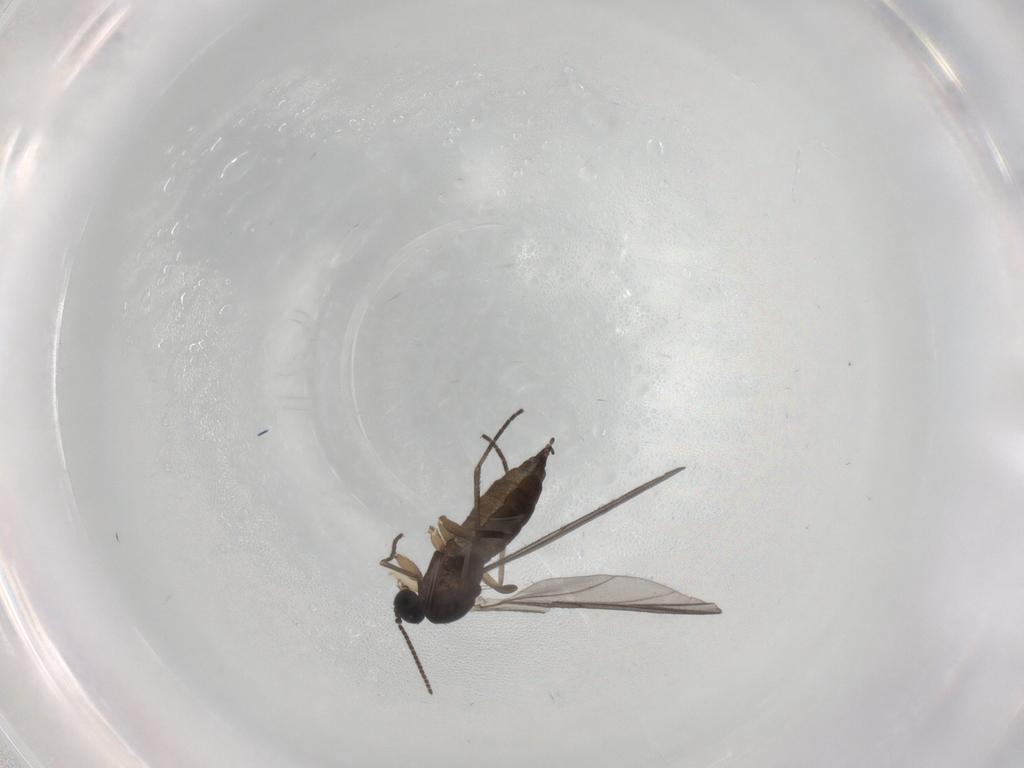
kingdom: Animalia
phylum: Arthropoda
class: Insecta
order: Diptera
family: Sciaridae
